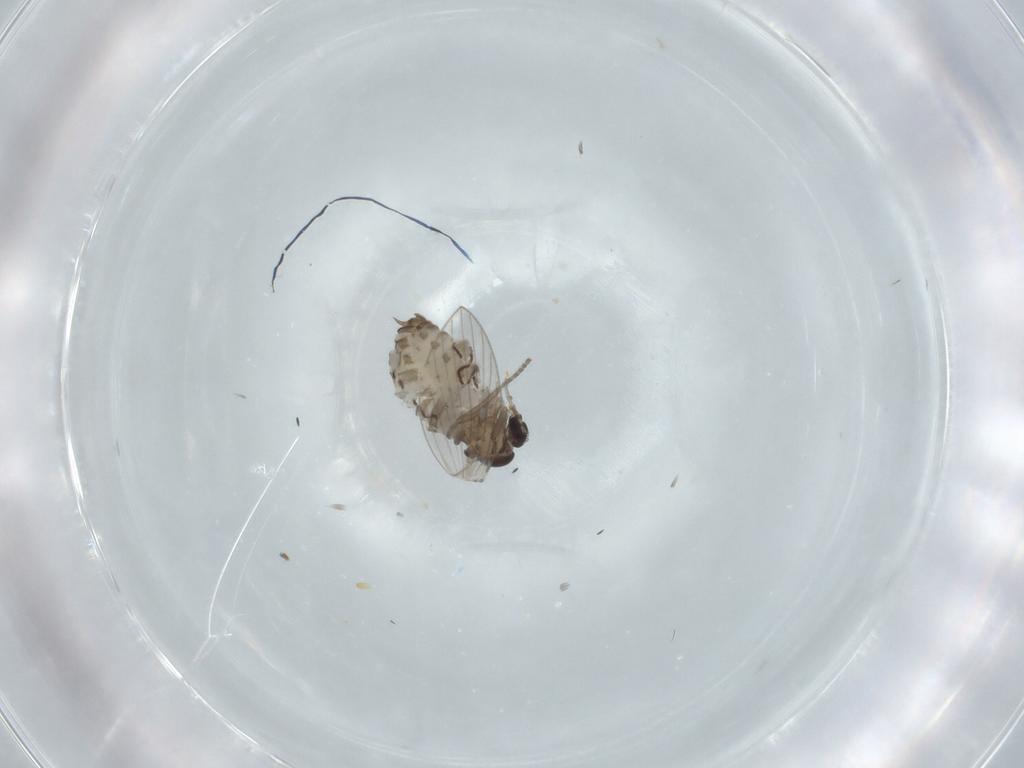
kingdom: Animalia
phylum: Arthropoda
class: Insecta
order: Diptera
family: Psychodidae
